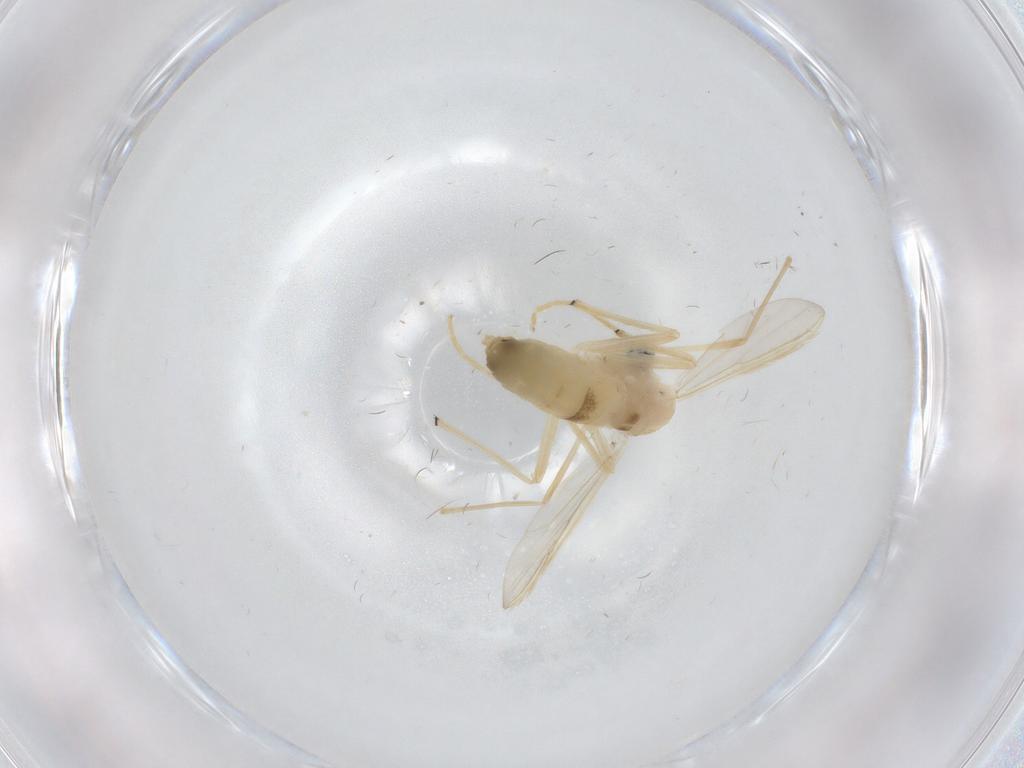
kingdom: Animalia
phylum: Arthropoda
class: Insecta
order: Diptera
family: Chironomidae
